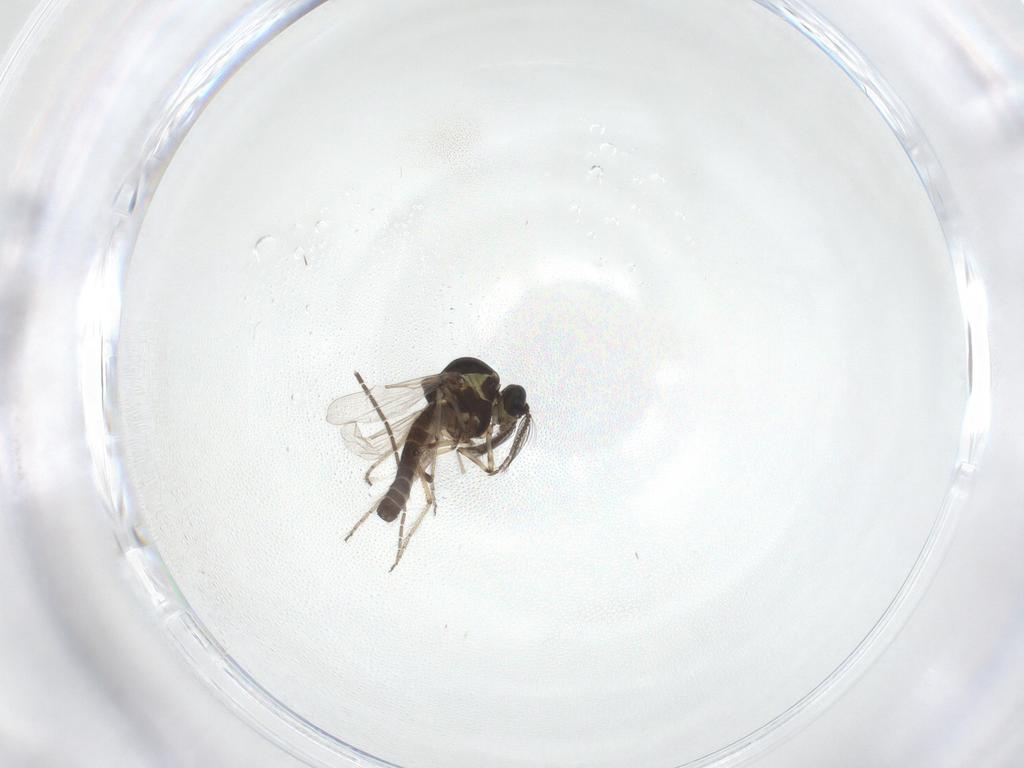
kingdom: Animalia
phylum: Arthropoda
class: Insecta
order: Diptera
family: Ceratopogonidae
